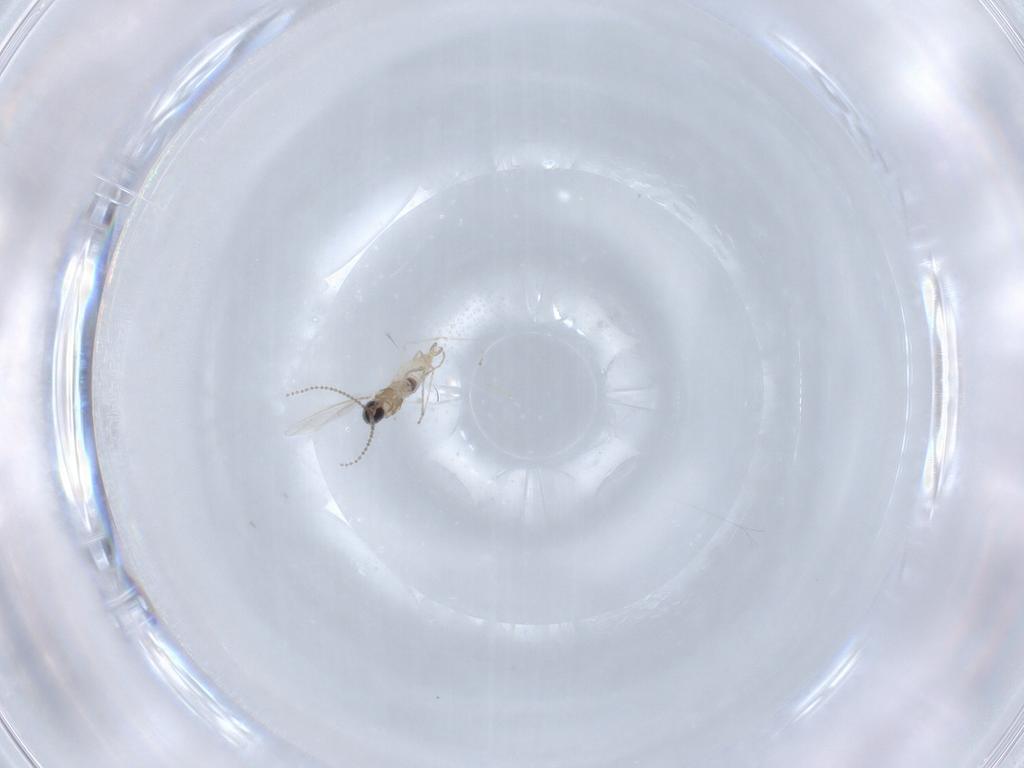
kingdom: Animalia
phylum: Arthropoda
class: Insecta
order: Diptera
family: Cecidomyiidae
